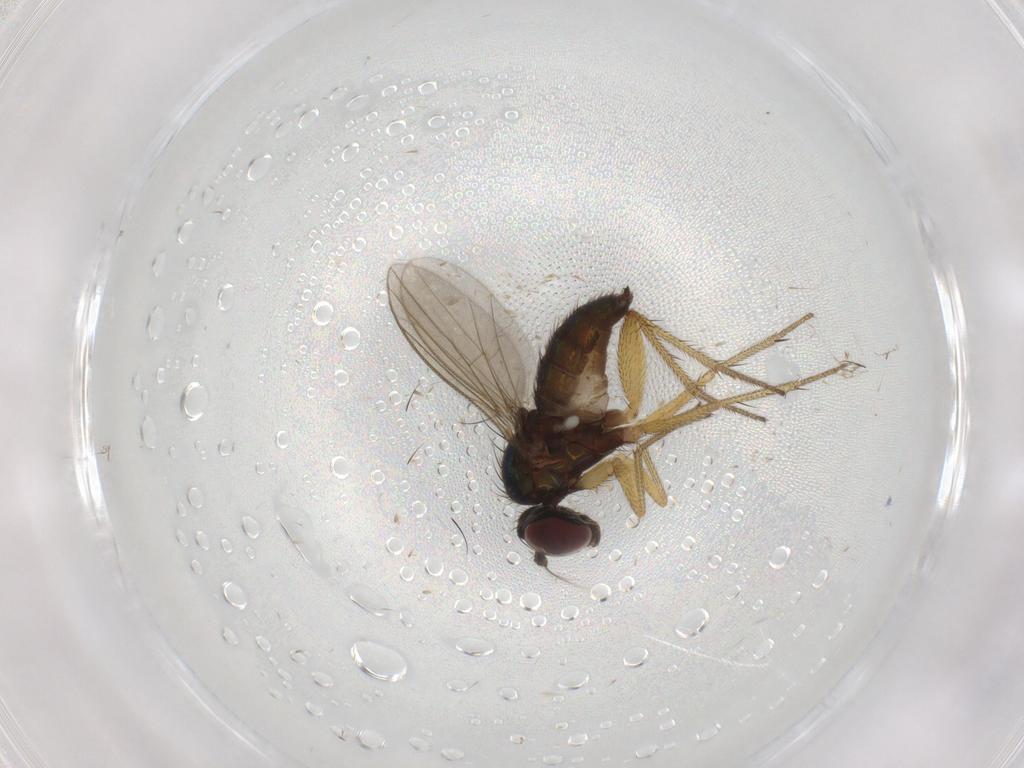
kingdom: Animalia
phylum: Arthropoda
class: Insecta
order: Diptera
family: Dolichopodidae
